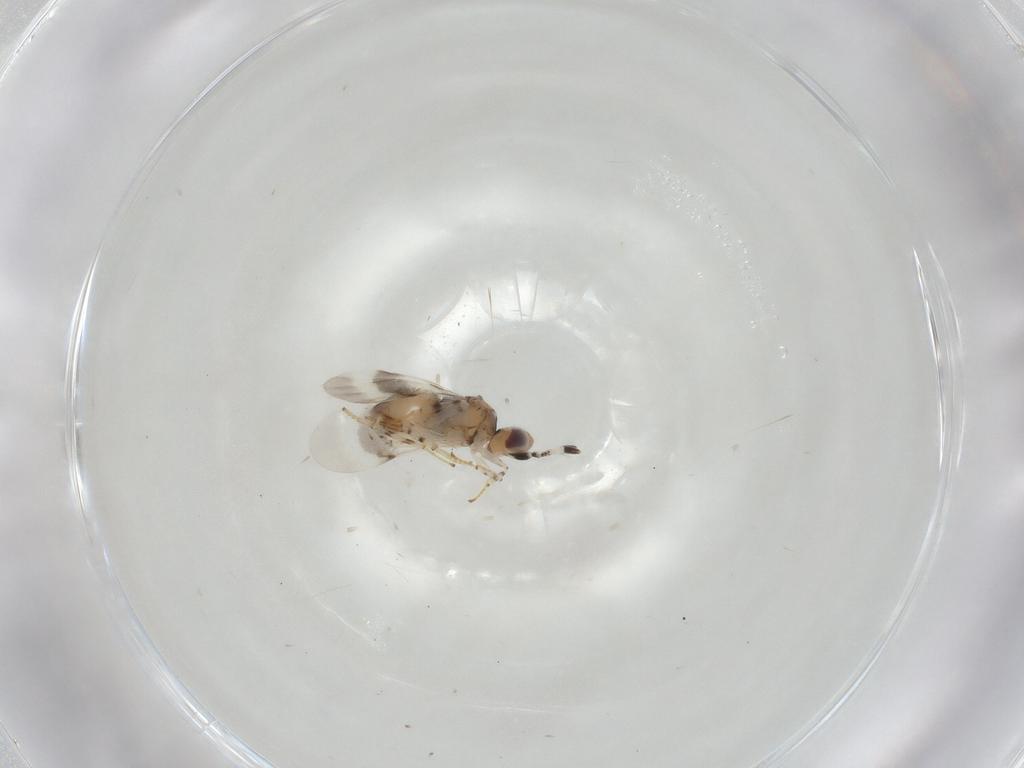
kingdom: Animalia
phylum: Arthropoda
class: Insecta
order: Hymenoptera
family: Encyrtidae
